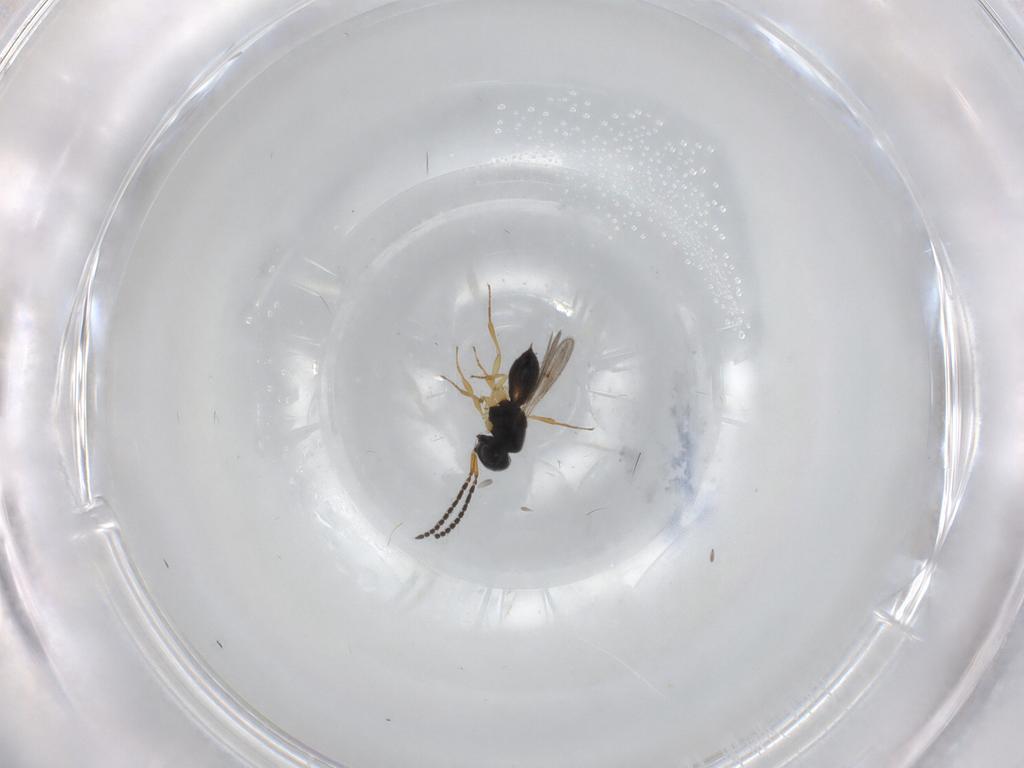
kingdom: Animalia
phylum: Arthropoda
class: Insecta
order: Hymenoptera
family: Scelionidae
